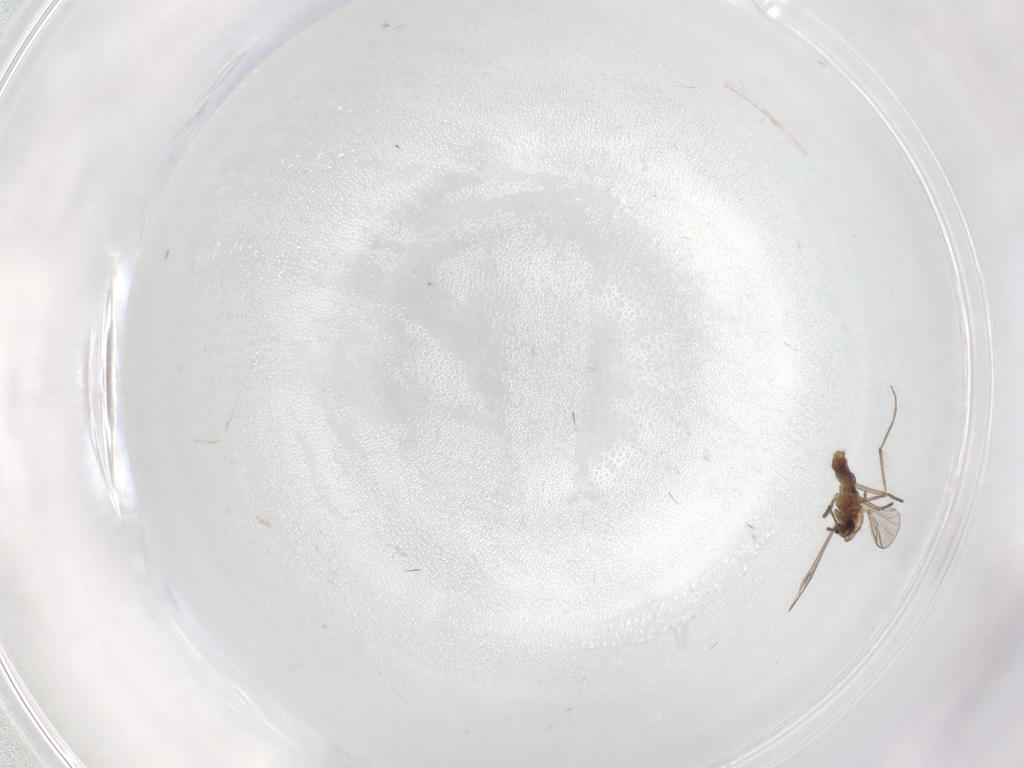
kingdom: Animalia
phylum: Arthropoda
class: Insecta
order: Diptera
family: Chironomidae
